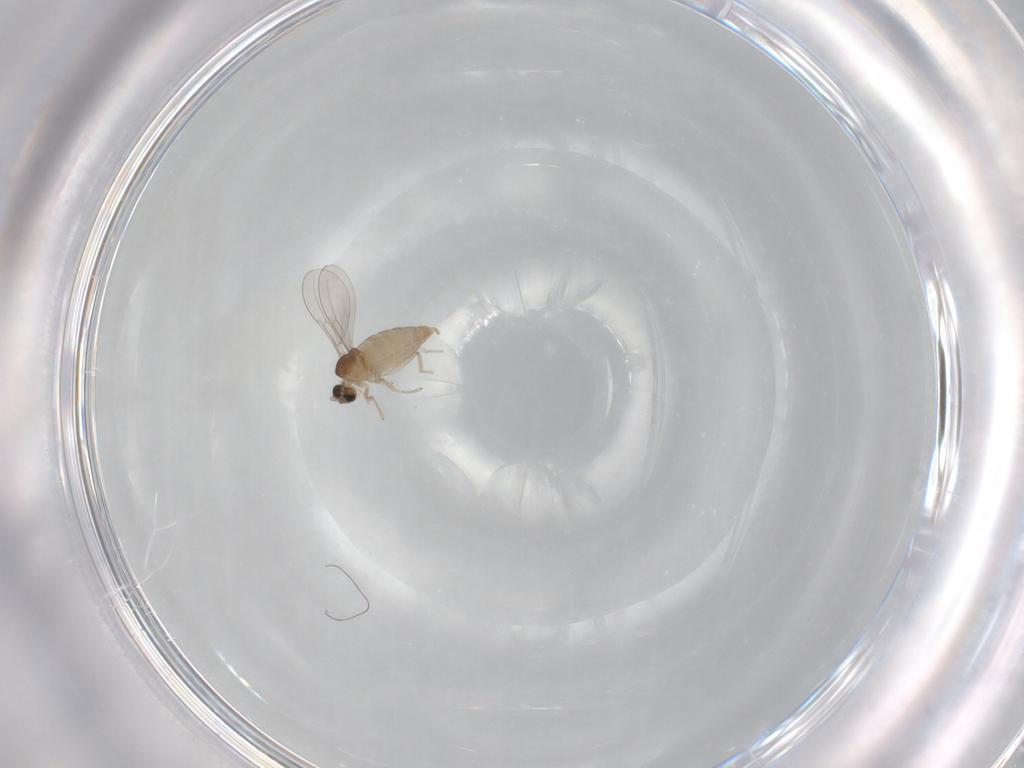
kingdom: Animalia
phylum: Arthropoda
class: Insecta
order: Diptera
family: Cecidomyiidae
